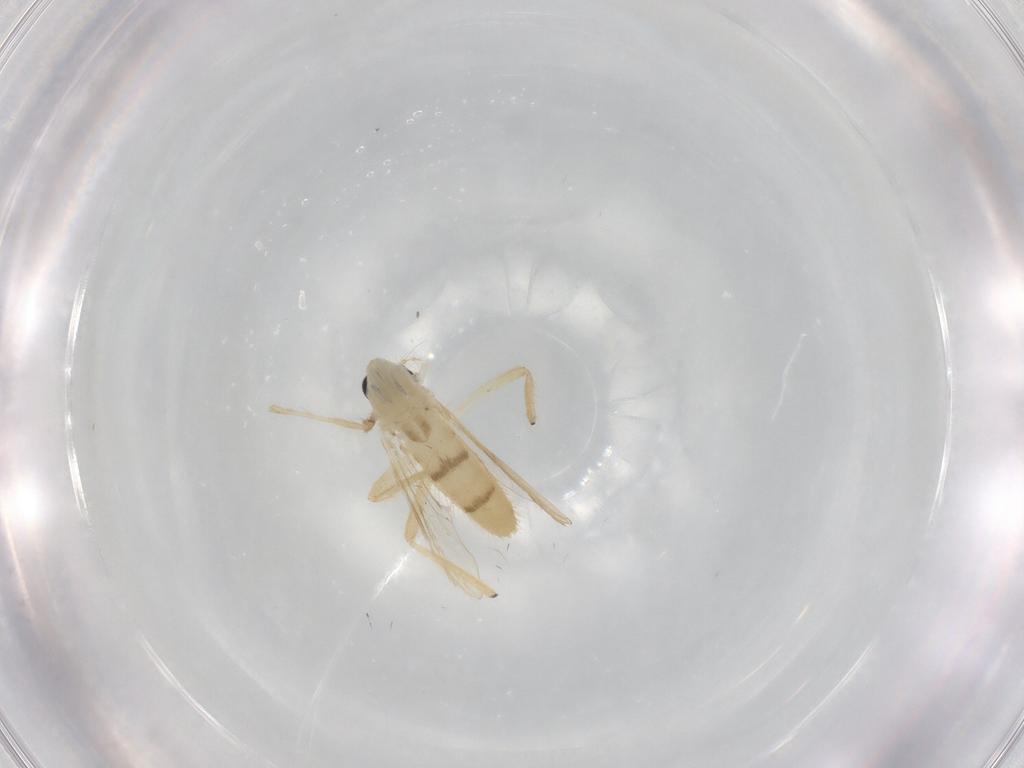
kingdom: Animalia
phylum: Arthropoda
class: Insecta
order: Diptera
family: Chironomidae
